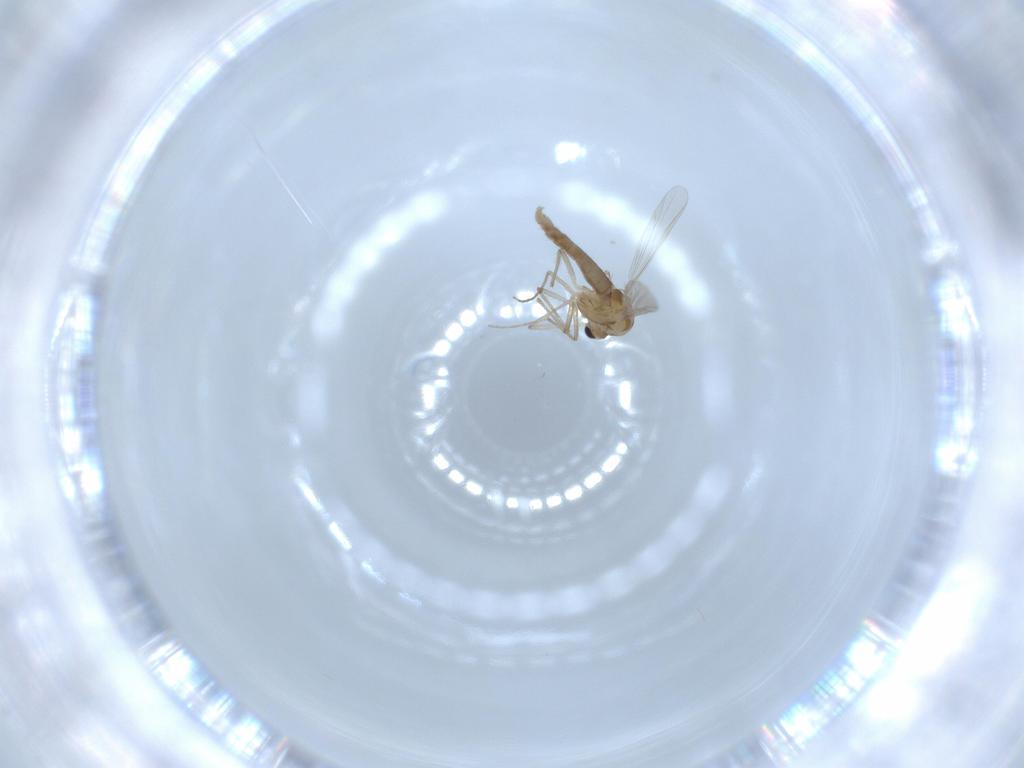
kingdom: Animalia
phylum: Arthropoda
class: Insecta
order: Diptera
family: Chironomidae
